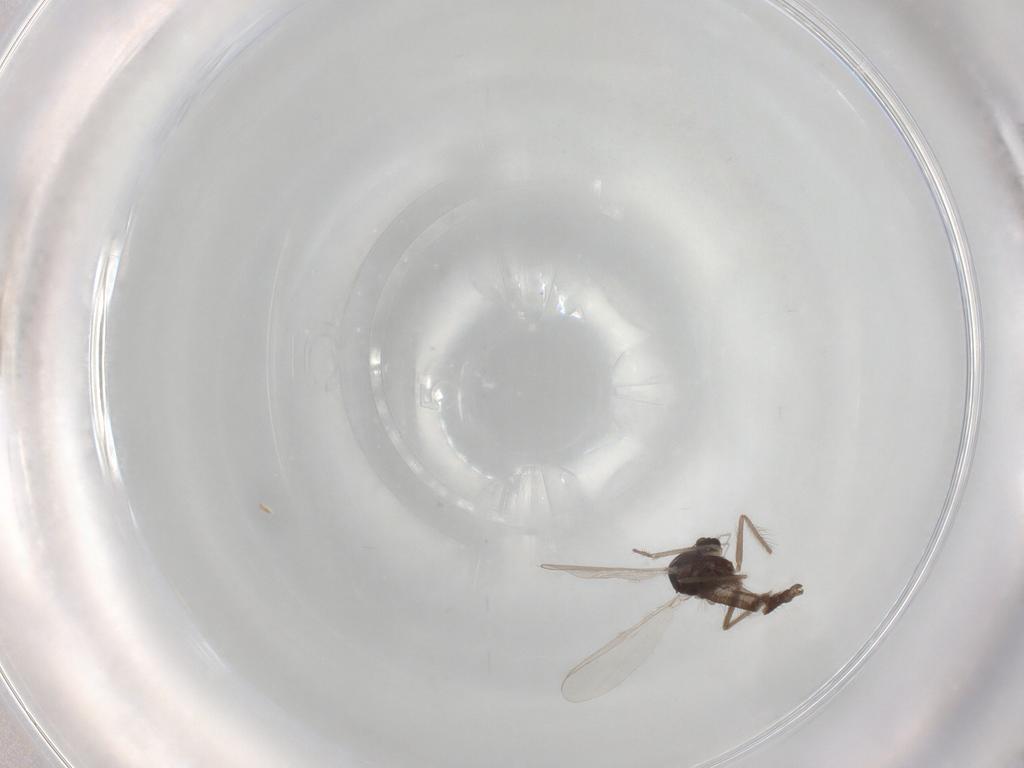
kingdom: Animalia
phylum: Arthropoda
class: Insecta
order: Diptera
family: Chironomidae
